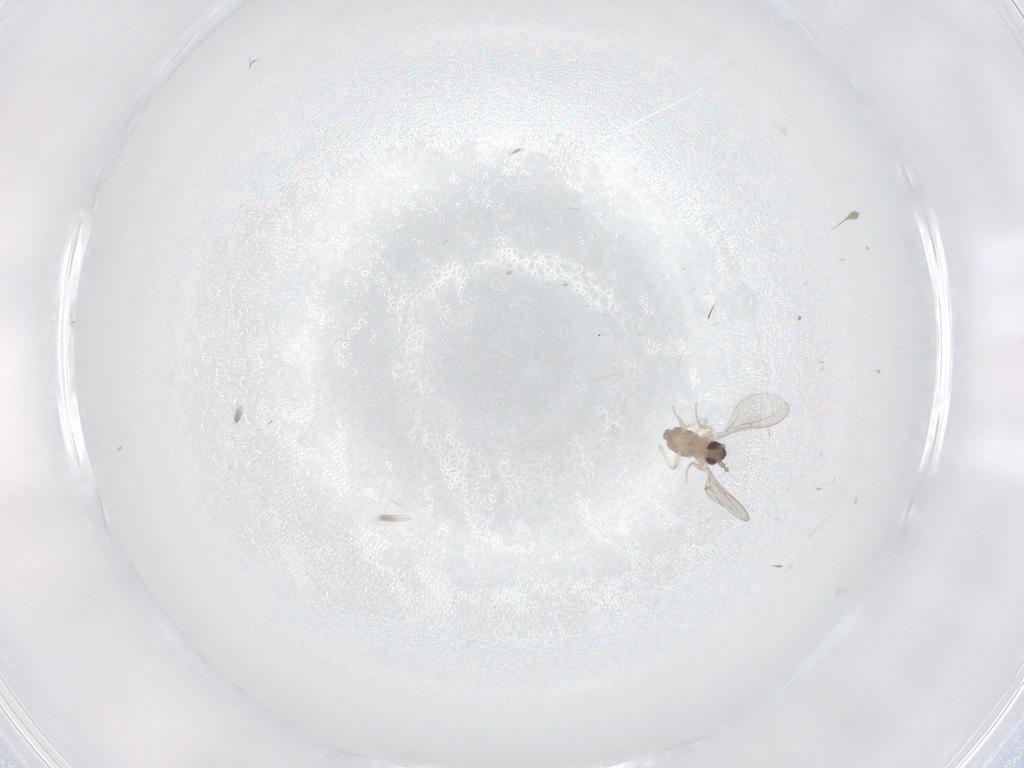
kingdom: Animalia
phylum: Arthropoda
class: Insecta
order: Diptera
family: Cecidomyiidae
